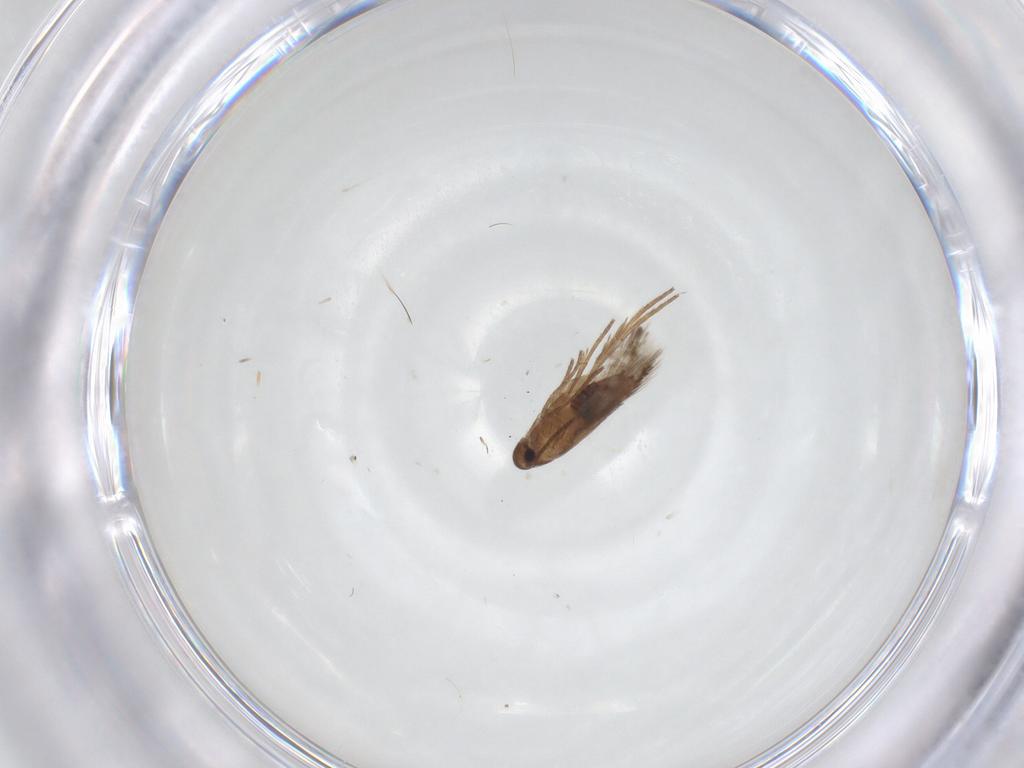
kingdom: Animalia
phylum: Arthropoda
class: Insecta
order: Lepidoptera
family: Heliozelidae
